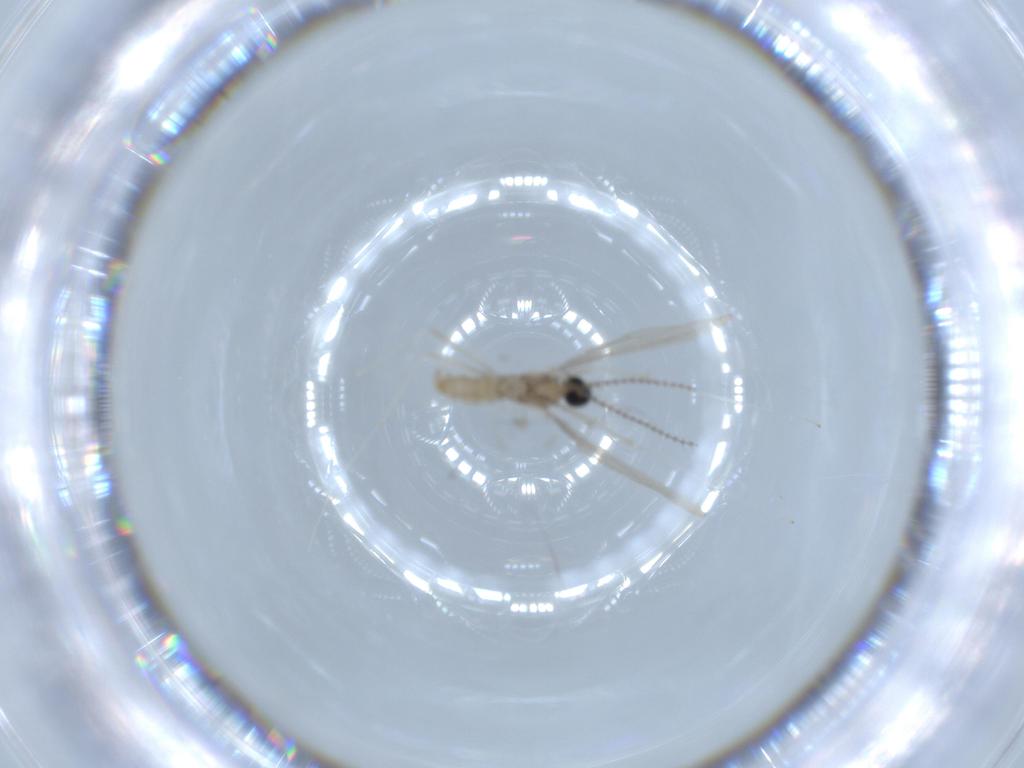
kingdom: Animalia
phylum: Arthropoda
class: Insecta
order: Diptera
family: Cecidomyiidae
